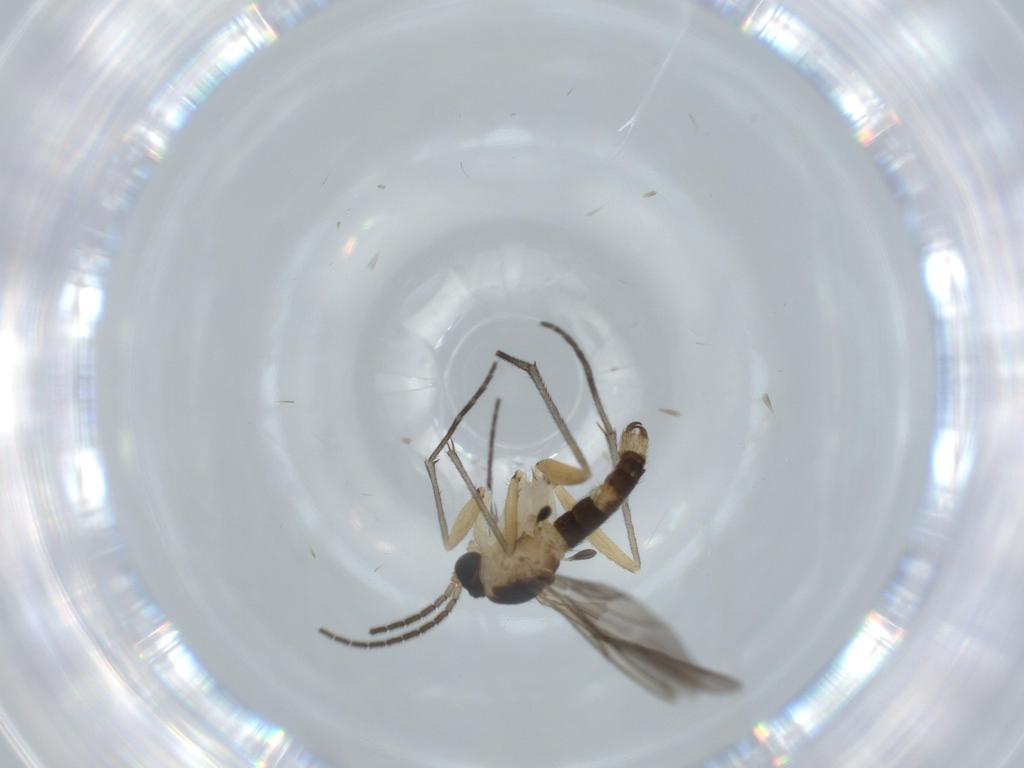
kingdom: Animalia
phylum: Arthropoda
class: Insecta
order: Diptera
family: Sciaridae
